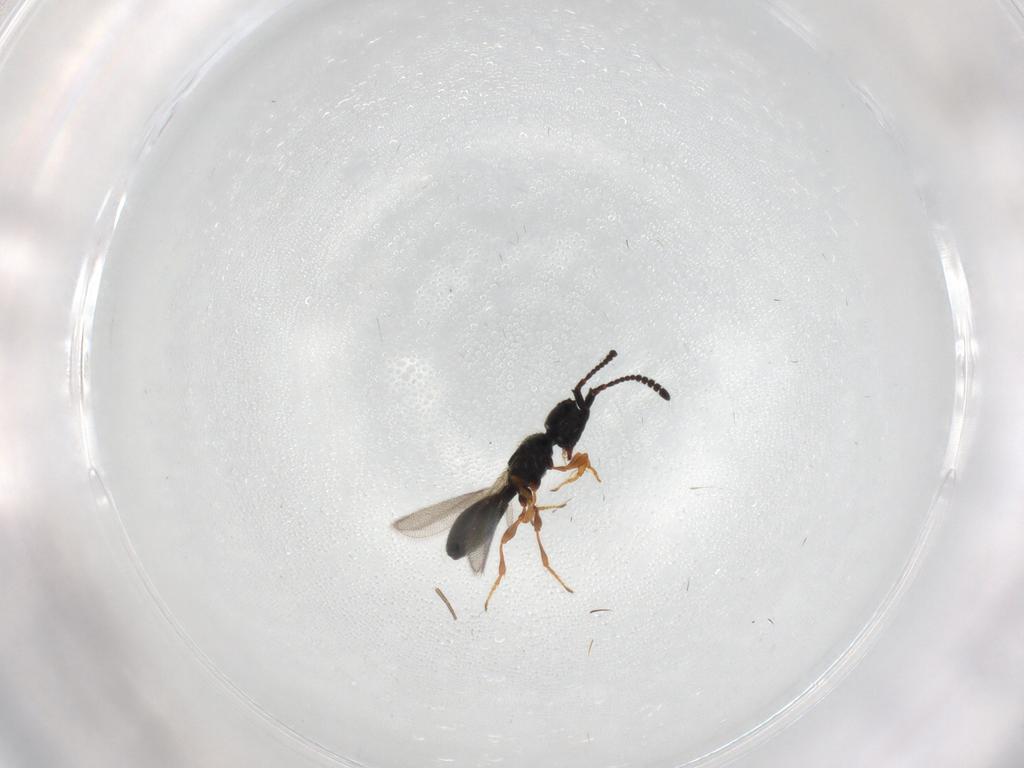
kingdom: Animalia
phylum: Arthropoda
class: Insecta
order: Hymenoptera
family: Diapriidae
